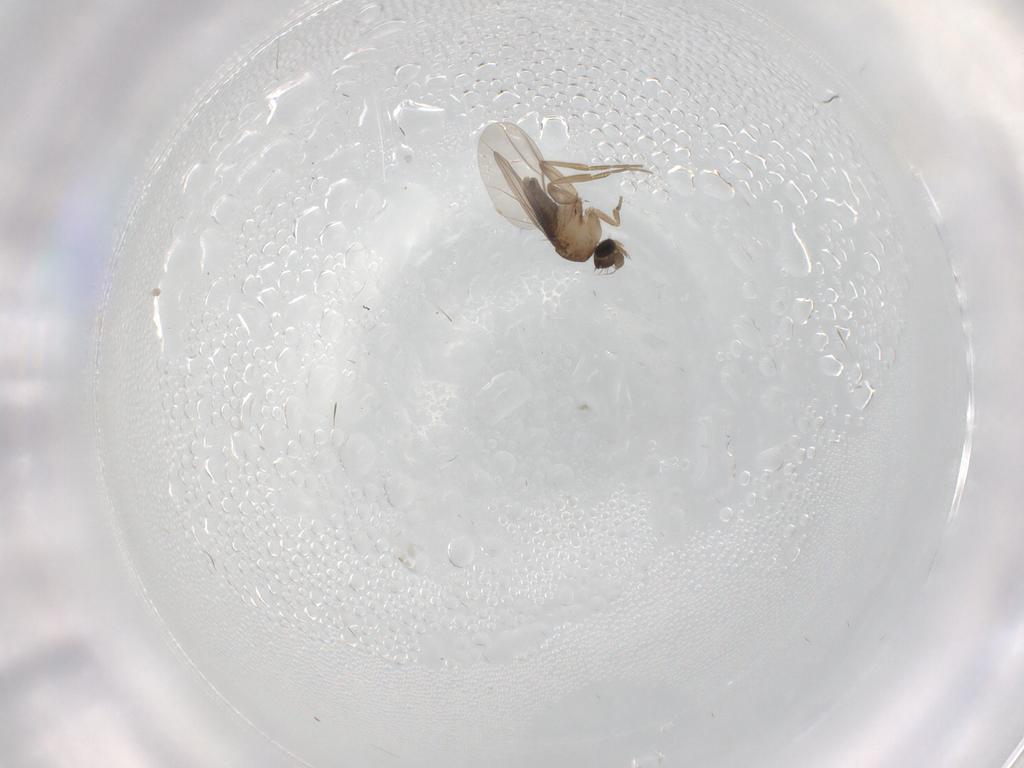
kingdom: Animalia
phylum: Arthropoda
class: Insecta
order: Diptera
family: Phoridae
